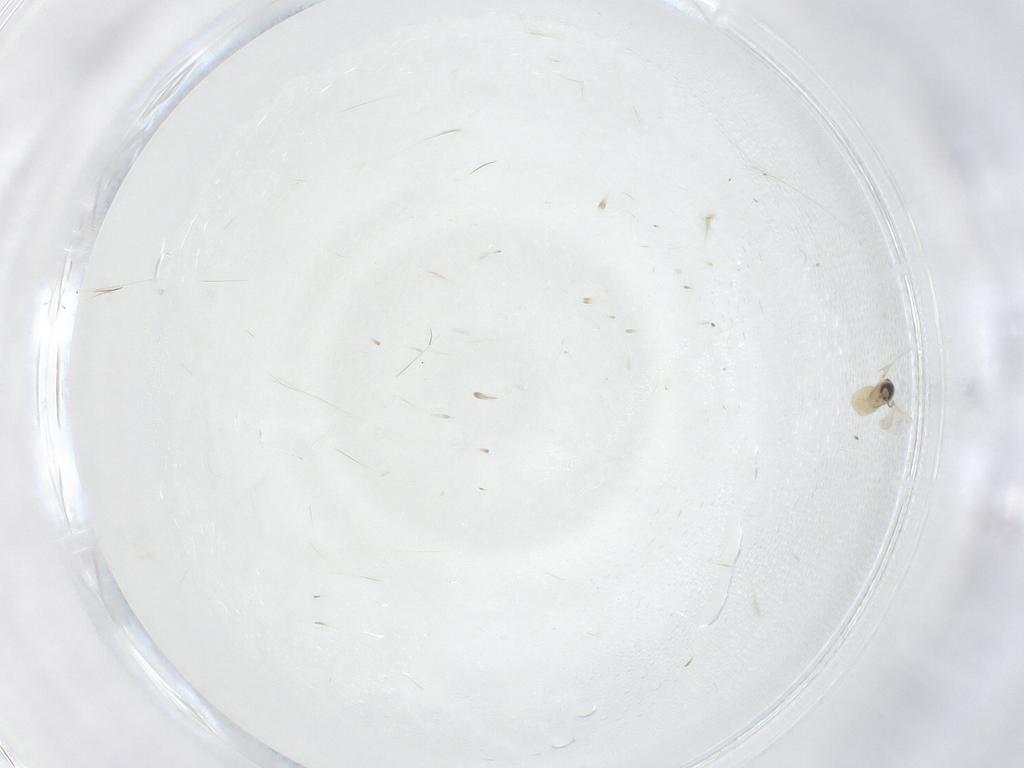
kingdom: Animalia
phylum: Arthropoda
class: Insecta
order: Diptera
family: Cecidomyiidae
